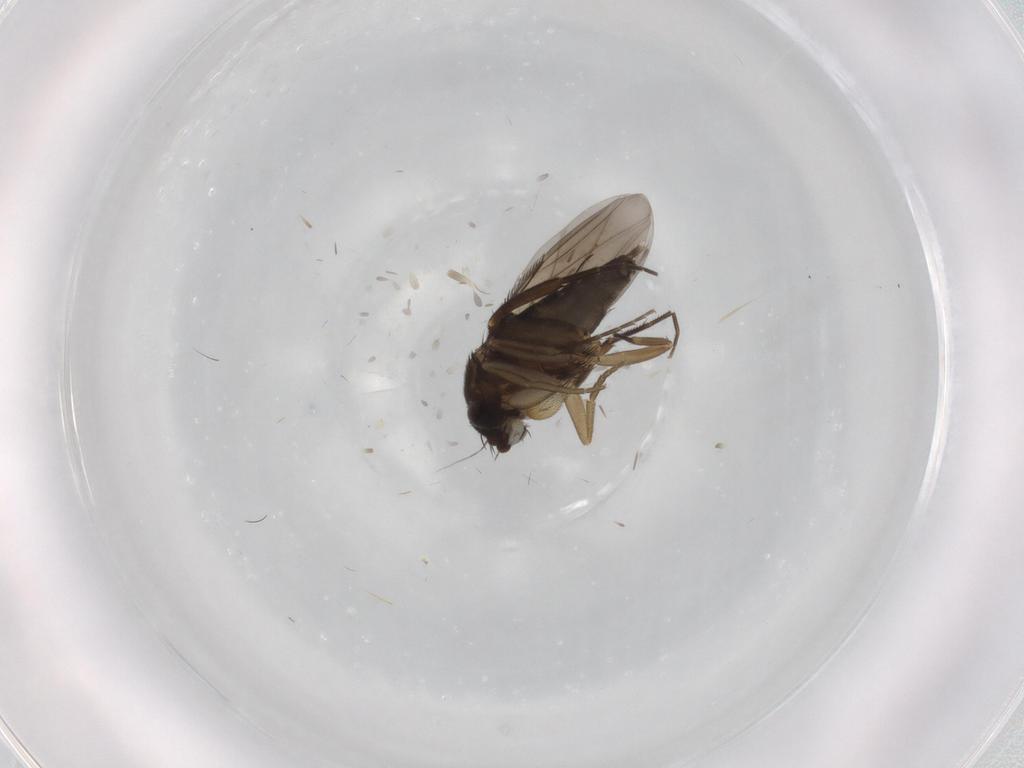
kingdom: Animalia
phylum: Arthropoda
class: Insecta
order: Diptera
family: Phoridae
